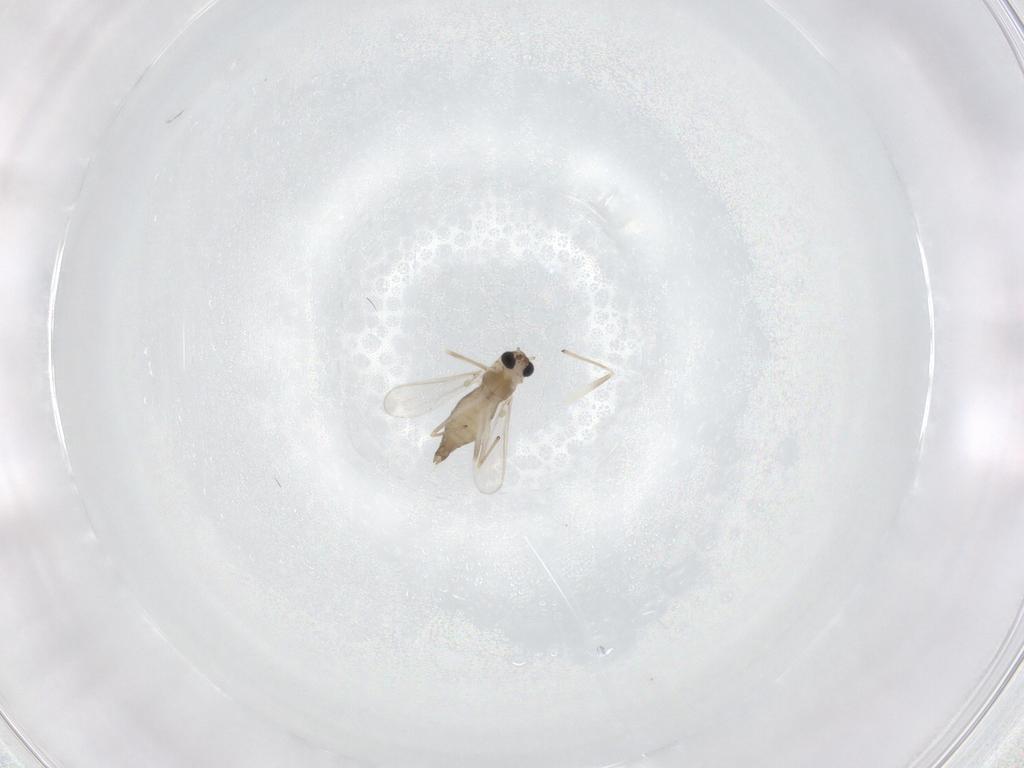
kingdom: Animalia
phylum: Arthropoda
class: Insecta
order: Diptera
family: Chironomidae
